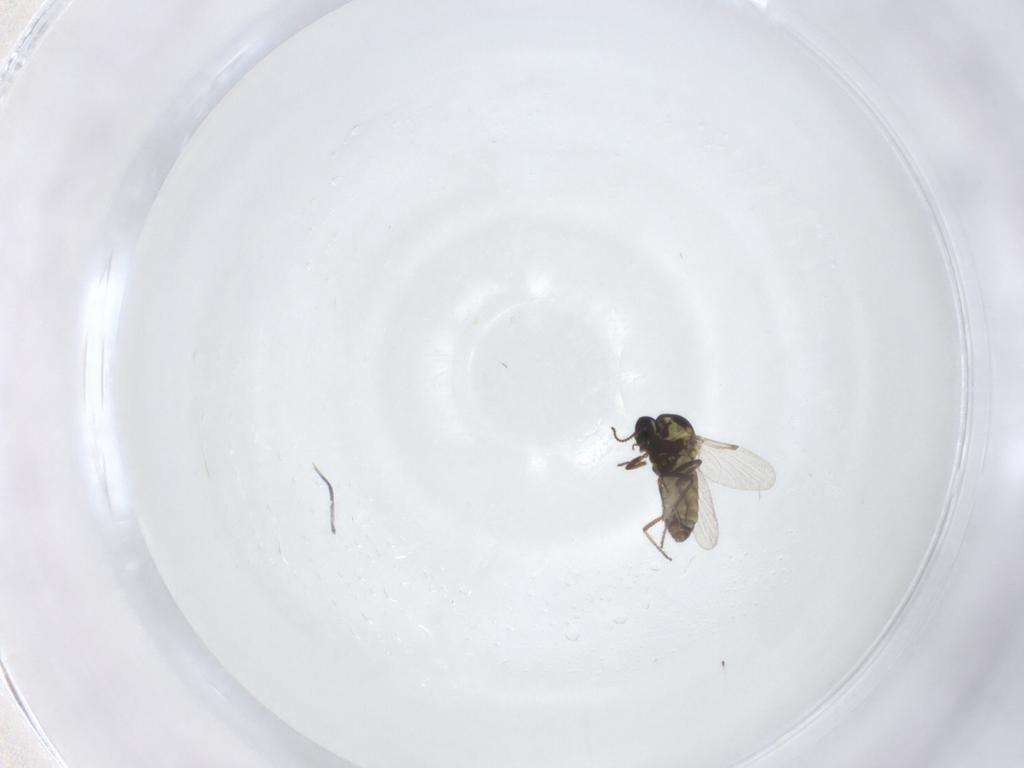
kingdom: Animalia
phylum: Arthropoda
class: Insecta
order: Diptera
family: Ceratopogonidae
